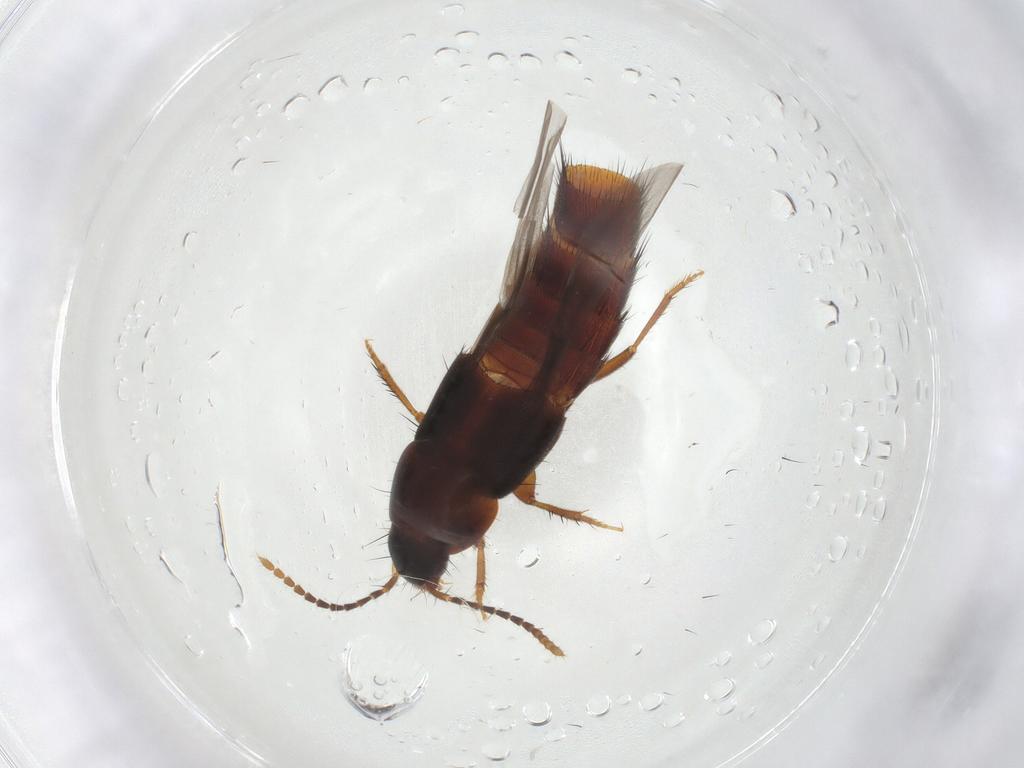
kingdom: Animalia
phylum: Arthropoda
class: Insecta
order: Coleoptera
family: Staphylinidae
